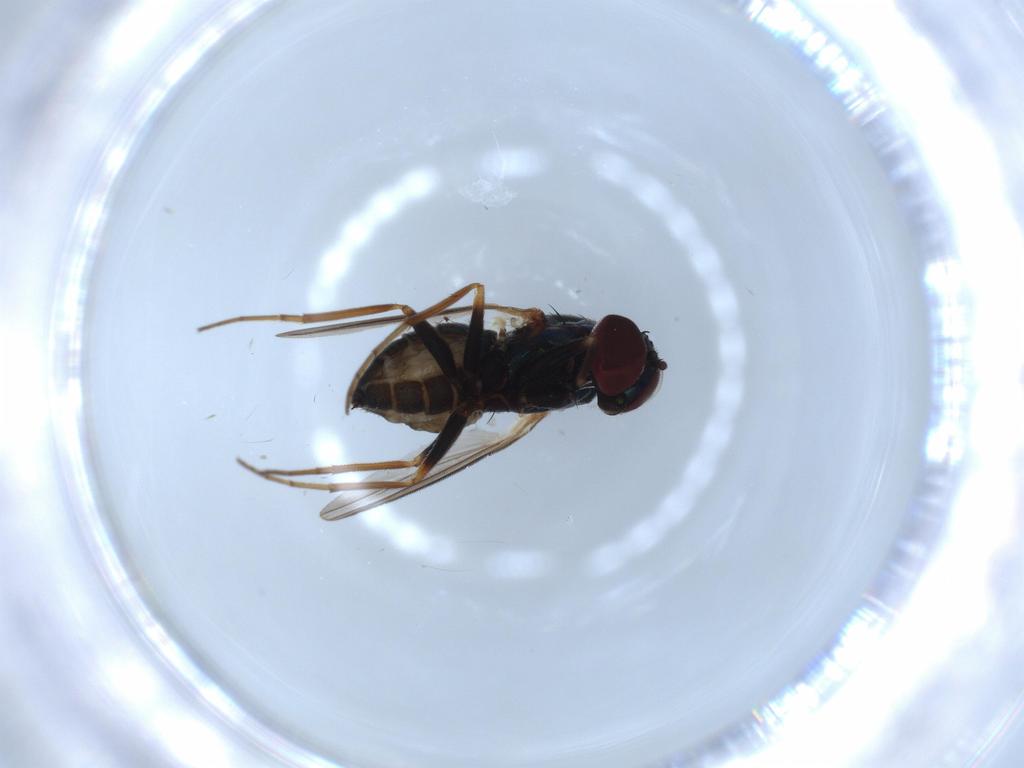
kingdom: Animalia
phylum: Arthropoda
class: Insecta
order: Diptera
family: Dolichopodidae
